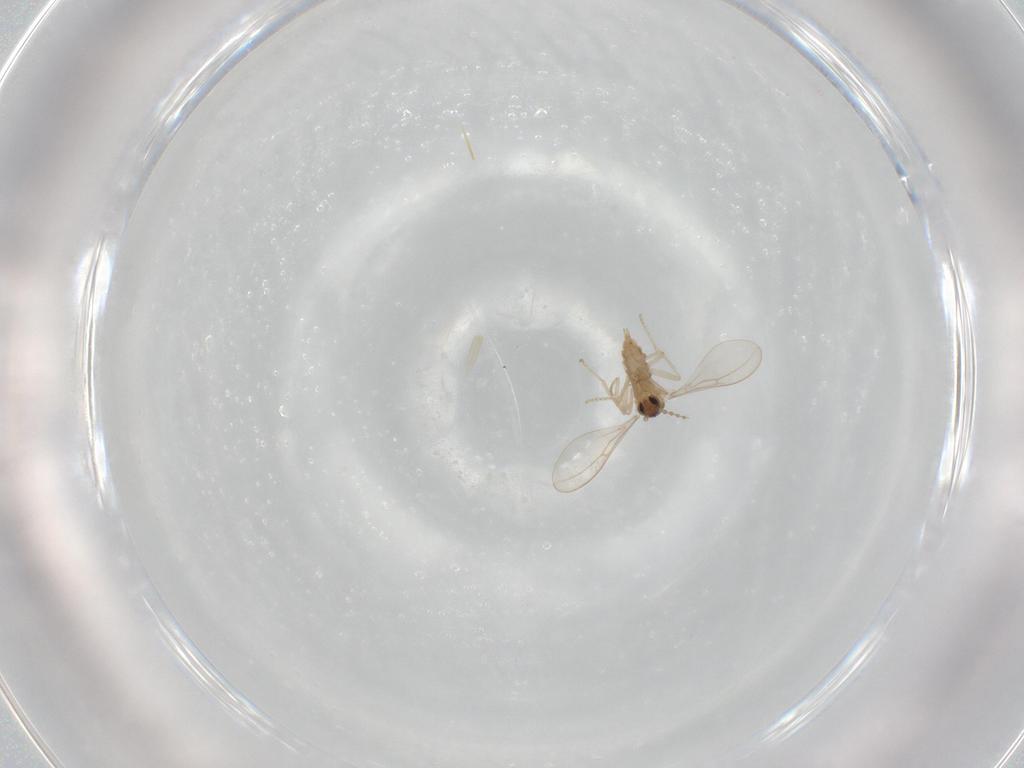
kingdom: Animalia
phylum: Arthropoda
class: Insecta
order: Diptera
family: Cecidomyiidae
